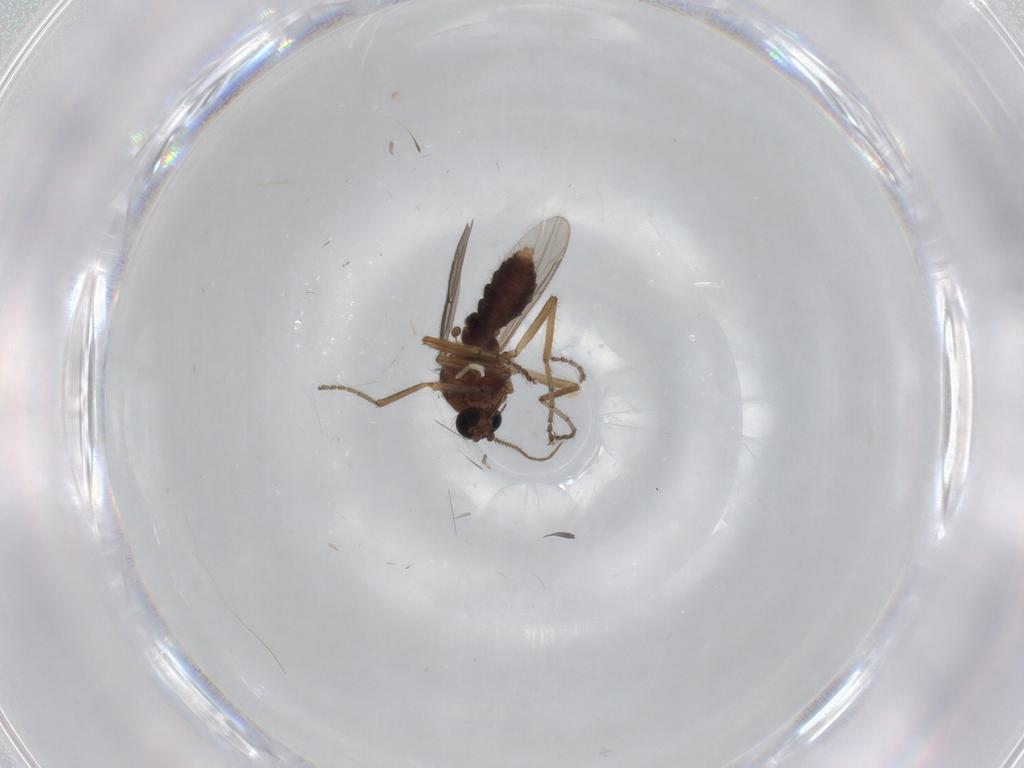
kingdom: Animalia
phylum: Arthropoda
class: Insecta
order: Diptera
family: Ceratopogonidae
